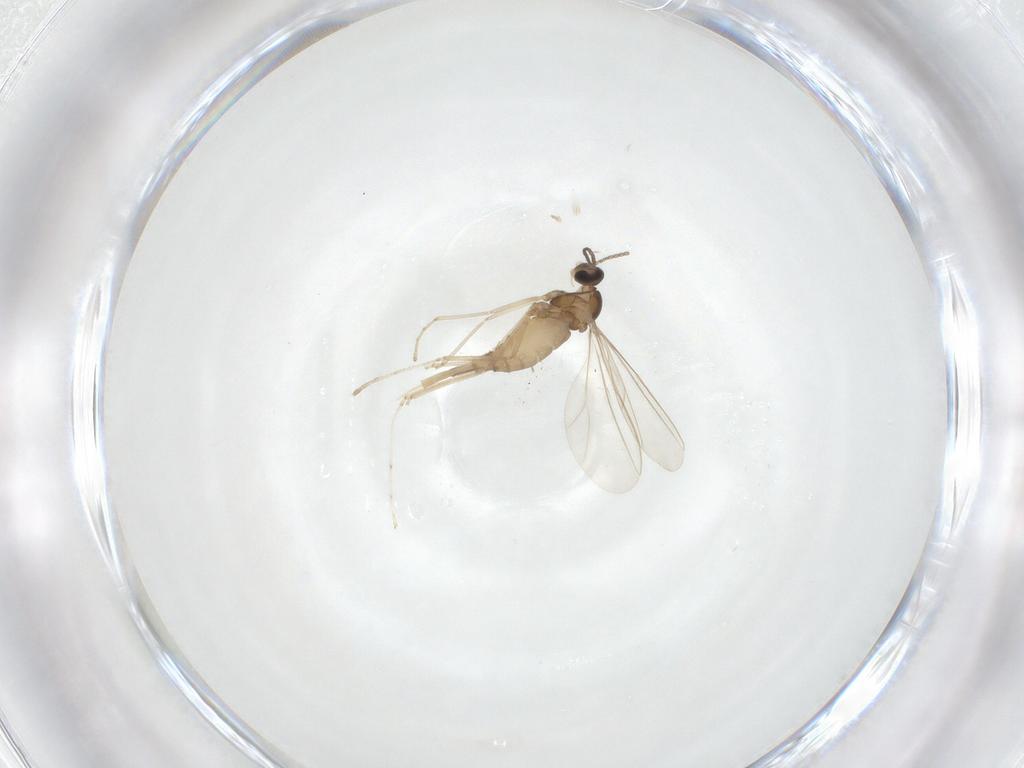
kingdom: Animalia
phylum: Arthropoda
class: Insecta
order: Diptera
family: Cecidomyiidae
